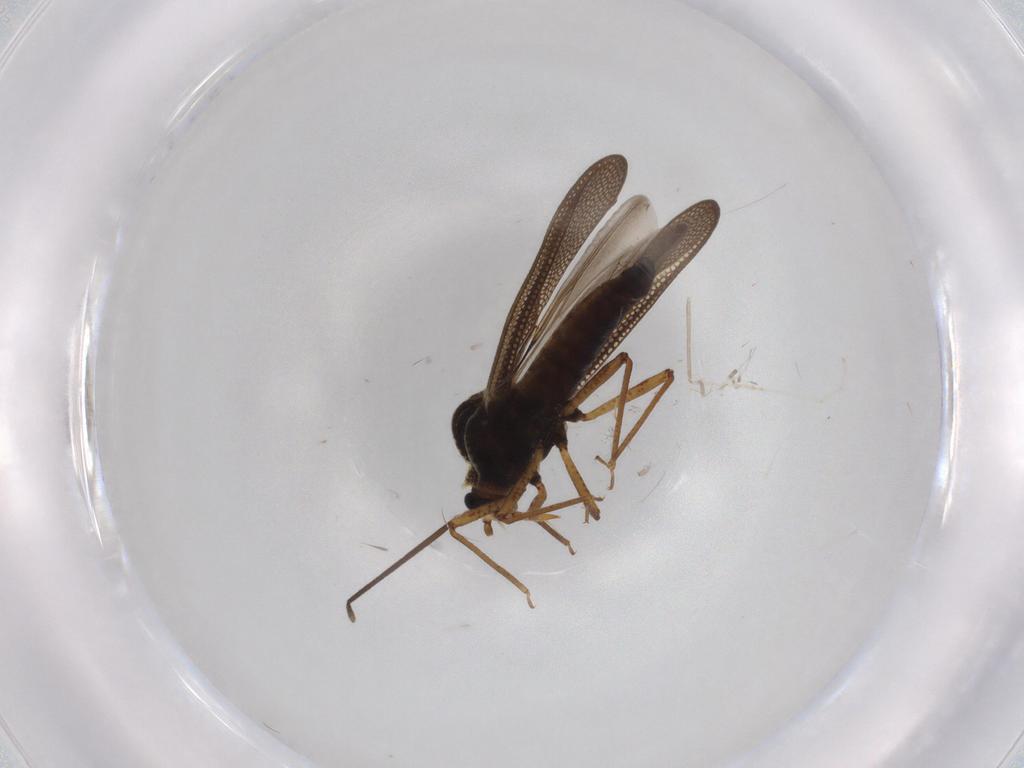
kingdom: Animalia
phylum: Arthropoda
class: Insecta
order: Hemiptera
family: Tingidae
